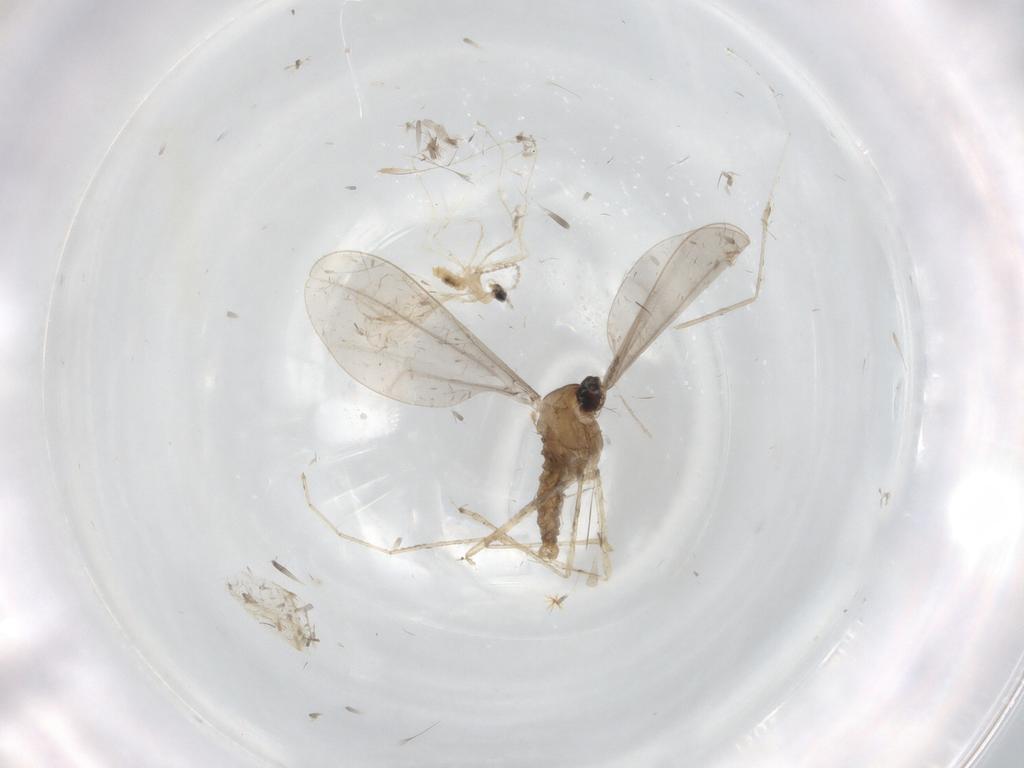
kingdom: Animalia
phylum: Arthropoda
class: Insecta
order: Diptera
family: Cecidomyiidae
